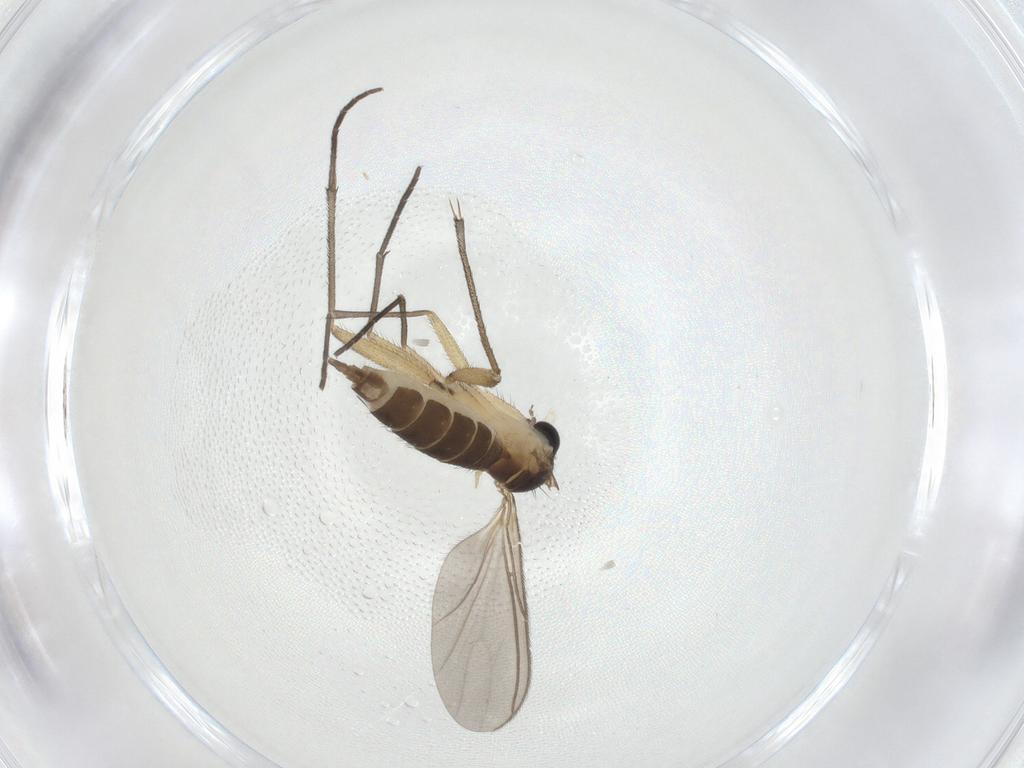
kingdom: Animalia
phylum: Arthropoda
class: Insecta
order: Diptera
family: Sciaridae
